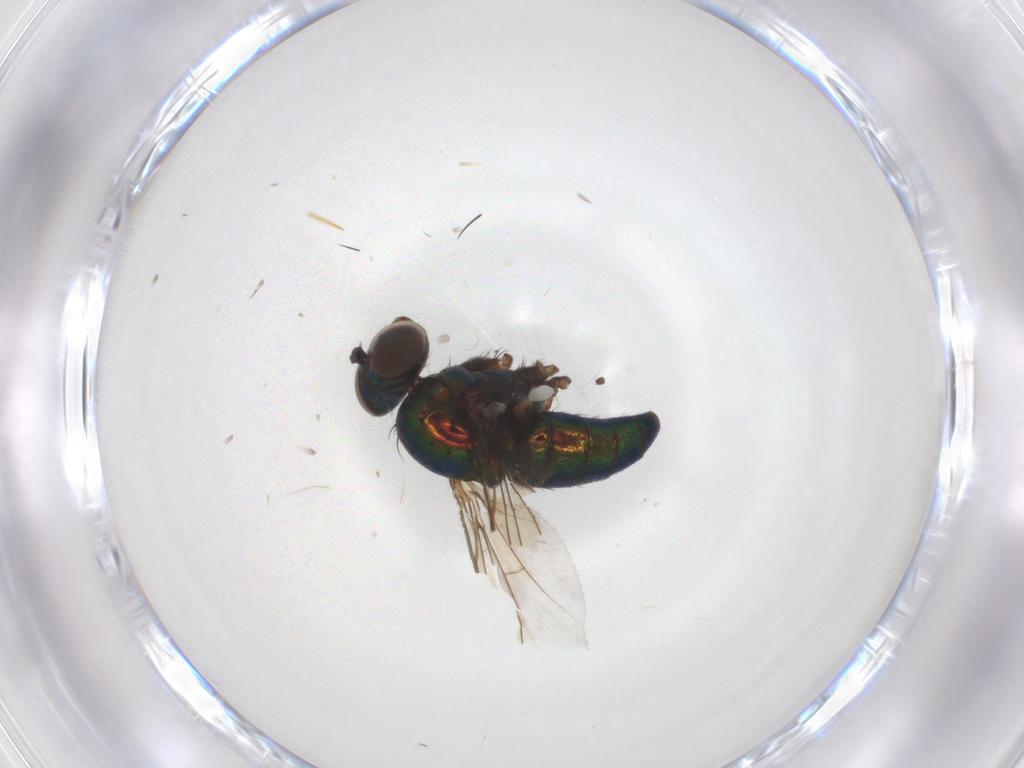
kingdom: Animalia
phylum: Arthropoda
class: Insecta
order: Diptera
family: Dolichopodidae
